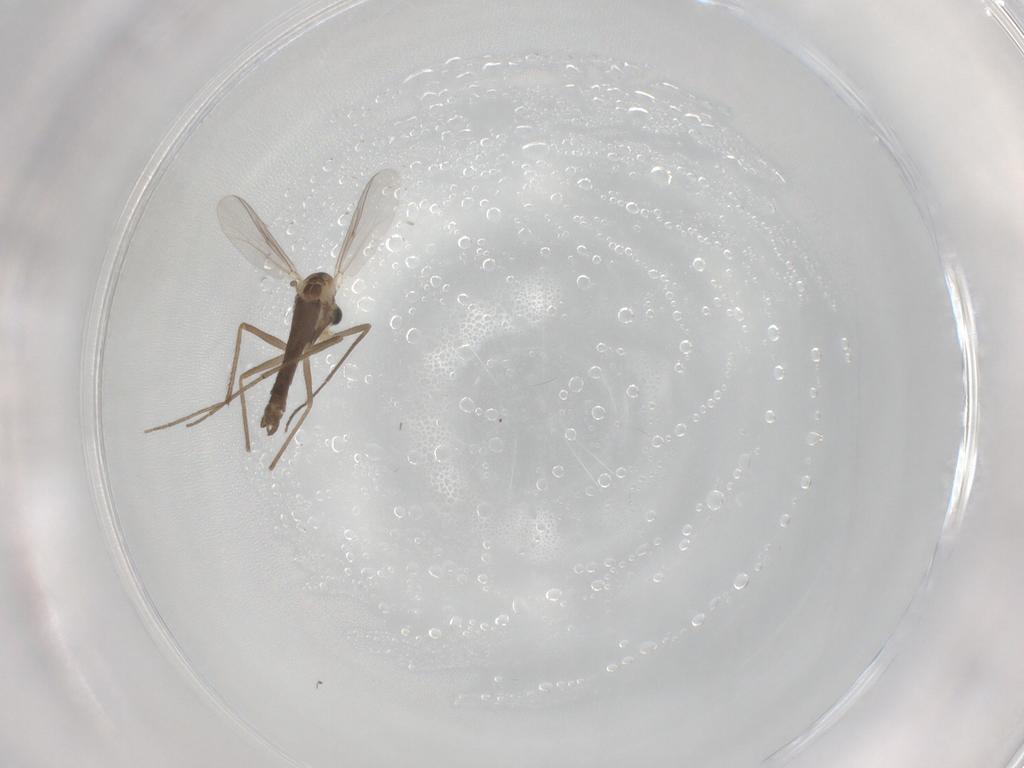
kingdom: Animalia
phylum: Arthropoda
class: Insecta
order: Diptera
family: Chironomidae
